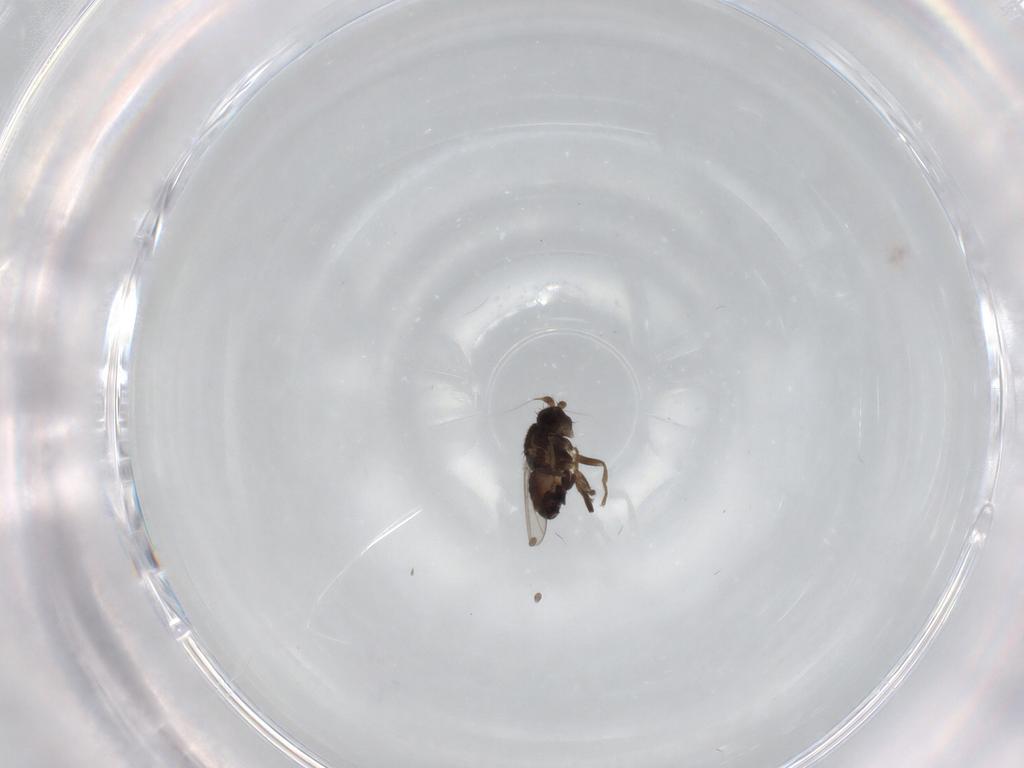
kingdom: Animalia
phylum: Arthropoda
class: Insecta
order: Diptera
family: Sphaeroceridae
